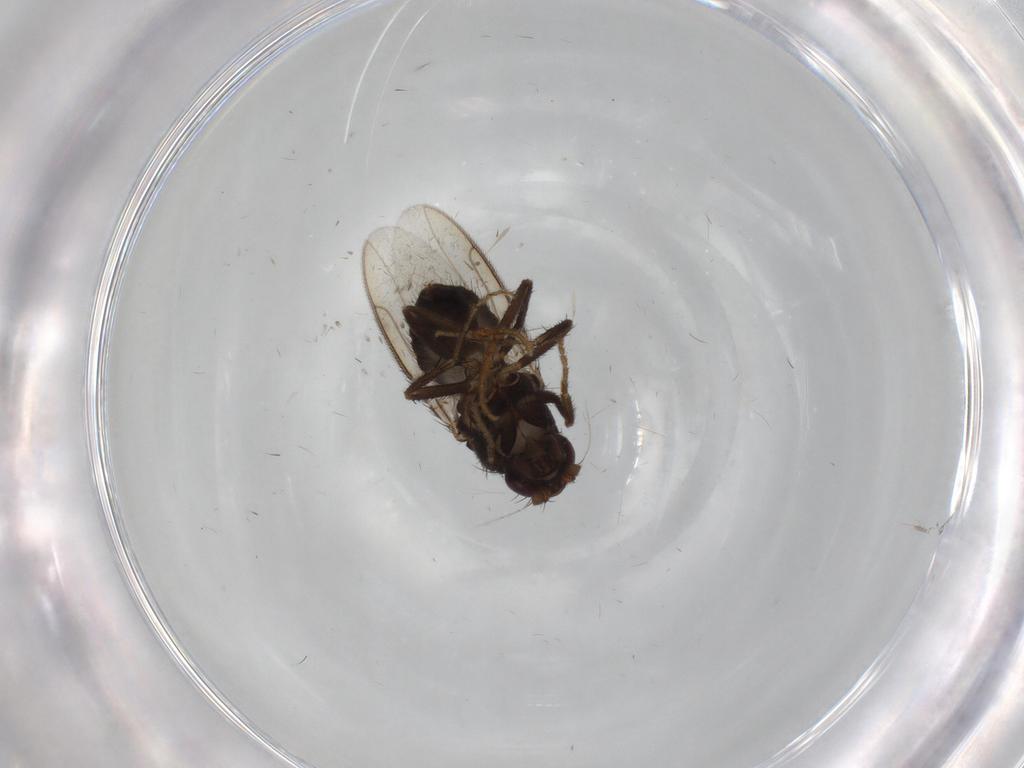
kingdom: Animalia
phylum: Arthropoda
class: Insecta
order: Diptera
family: Sphaeroceridae
